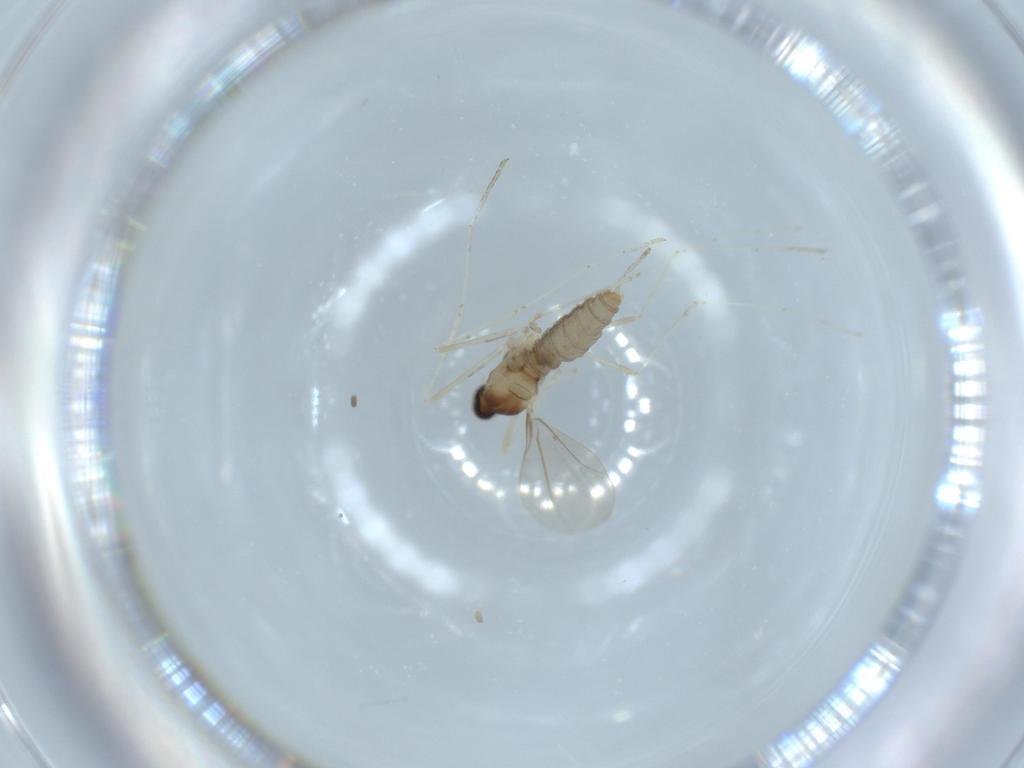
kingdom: Animalia
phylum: Arthropoda
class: Insecta
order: Diptera
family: Cecidomyiidae
